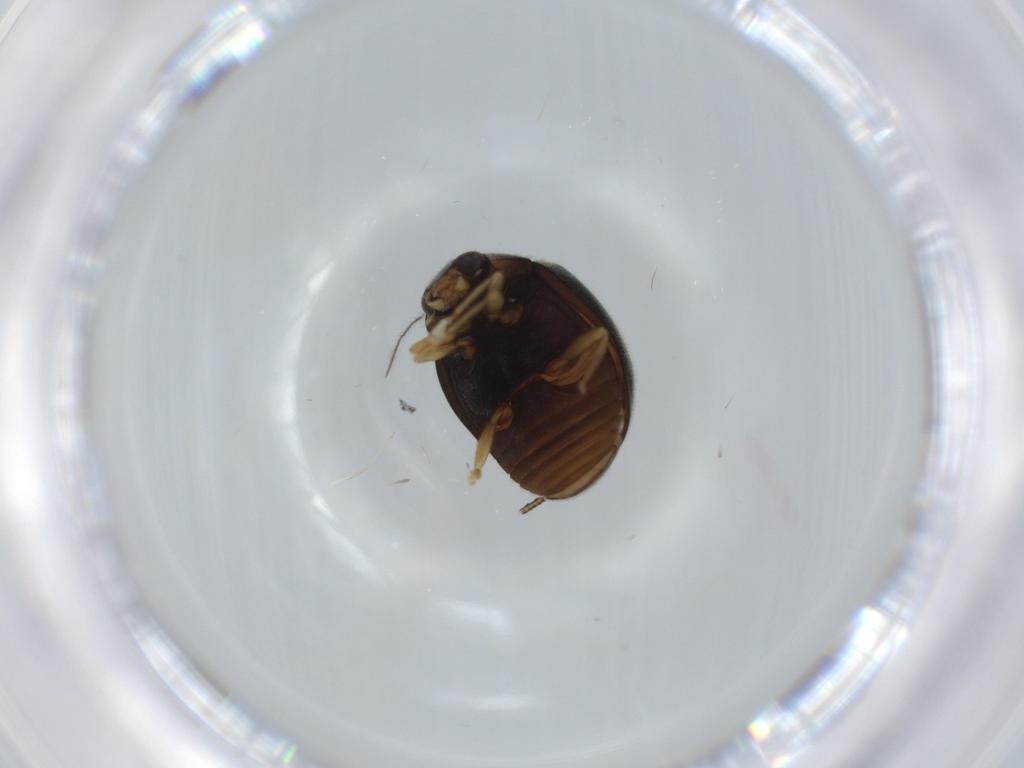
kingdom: Animalia
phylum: Arthropoda
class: Insecta
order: Coleoptera
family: Coccinellidae
